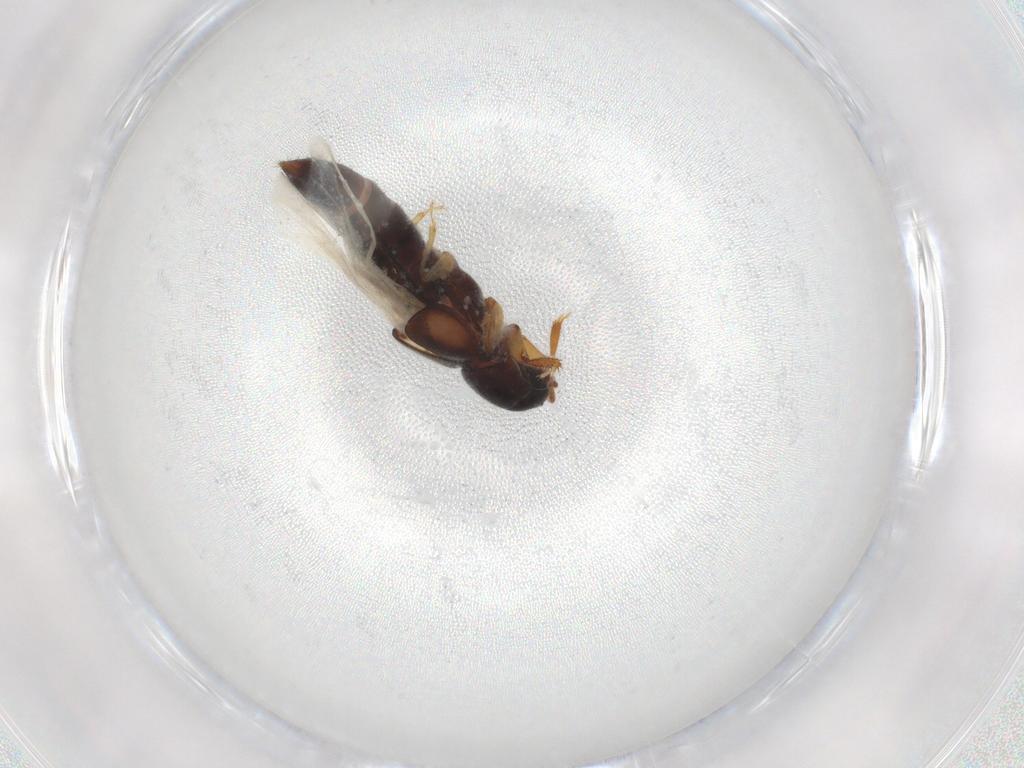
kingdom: Animalia
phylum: Arthropoda
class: Insecta
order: Coleoptera
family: Staphylinidae
